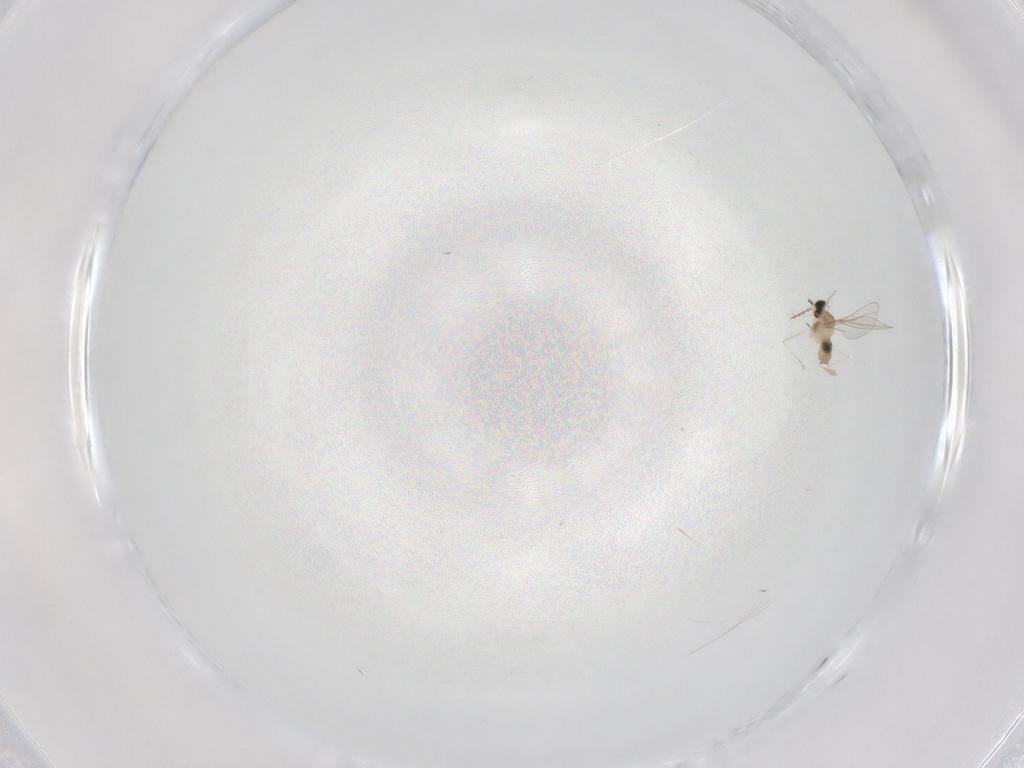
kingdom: Animalia
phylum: Arthropoda
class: Insecta
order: Diptera
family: Cecidomyiidae
